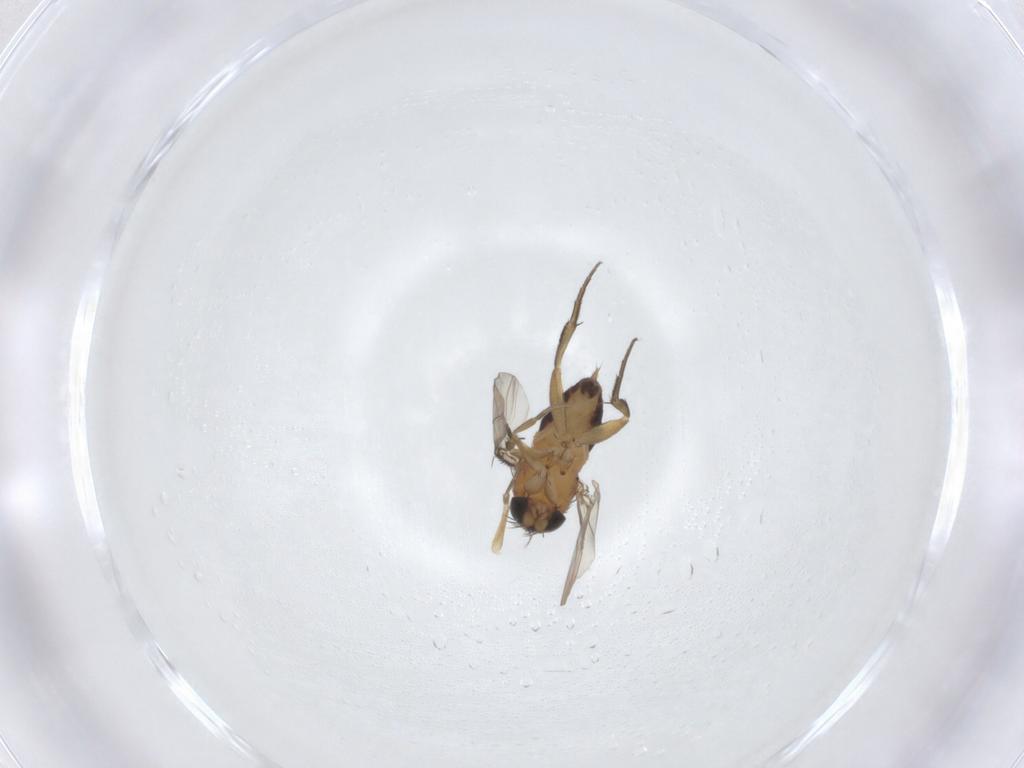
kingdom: Animalia
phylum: Arthropoda
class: Insecta
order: Diptera
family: Phoridae
